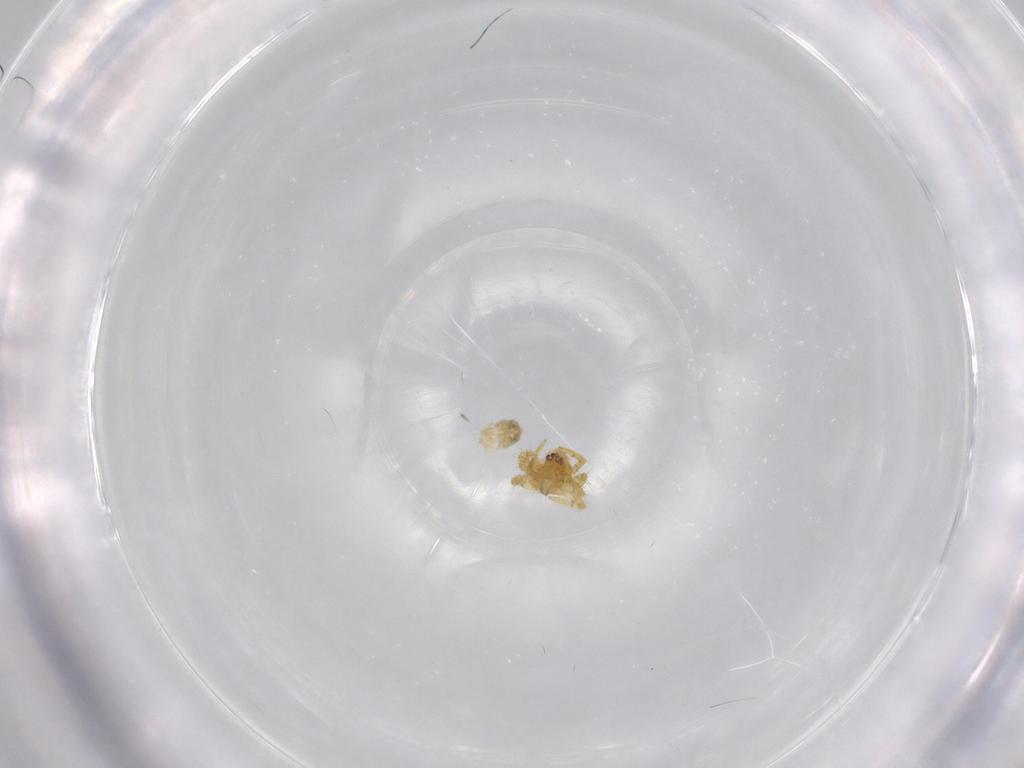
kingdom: Animalia
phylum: Arthropoda
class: Arachnida
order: Araneae
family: Theridiidae
